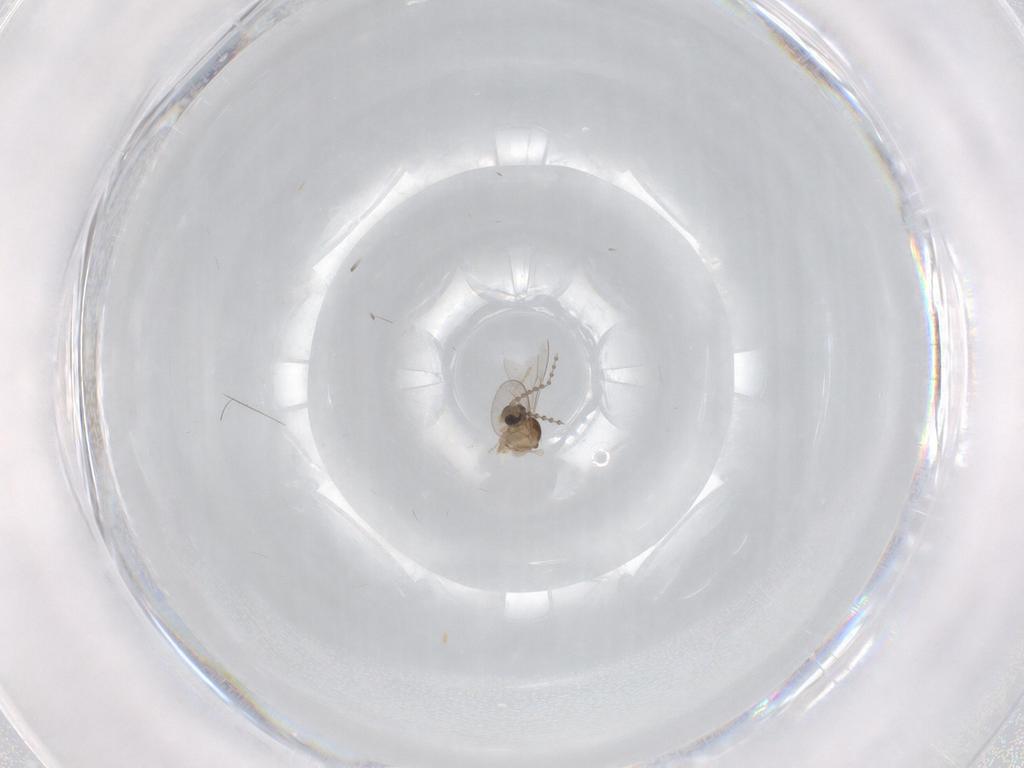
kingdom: Animalia
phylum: Arthropoda
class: Insecta
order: Diptera
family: Cecidomyiidae
